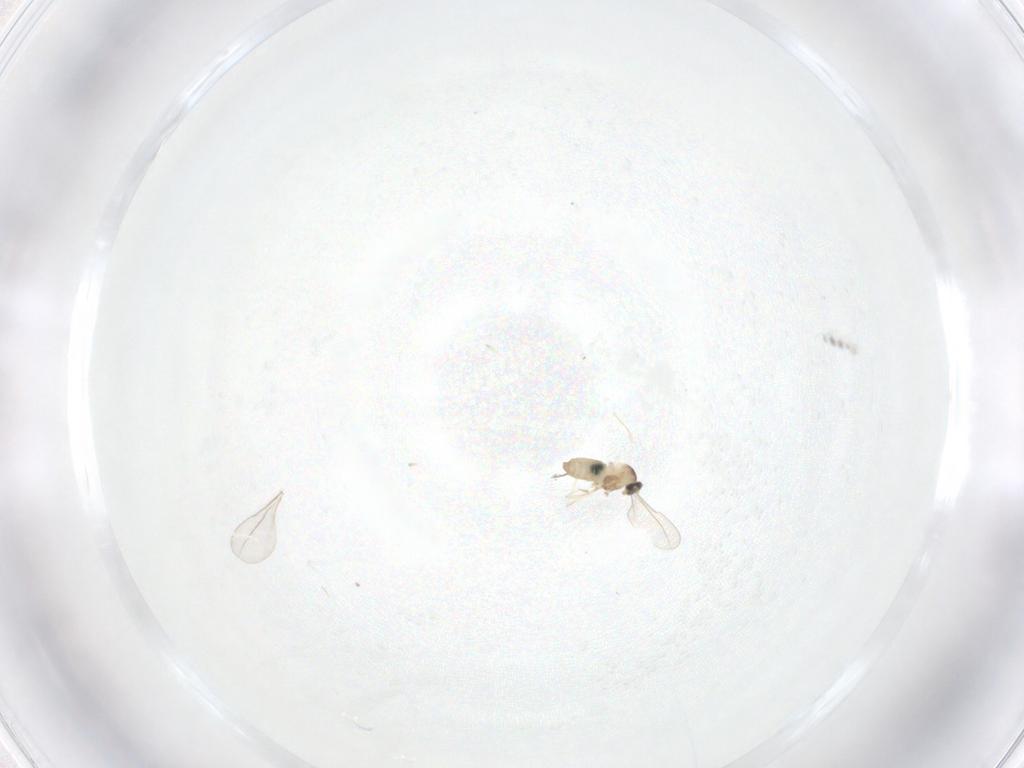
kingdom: Animalia
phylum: Arthropoda
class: Insecta
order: Diptera
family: Cecidomyiidae
